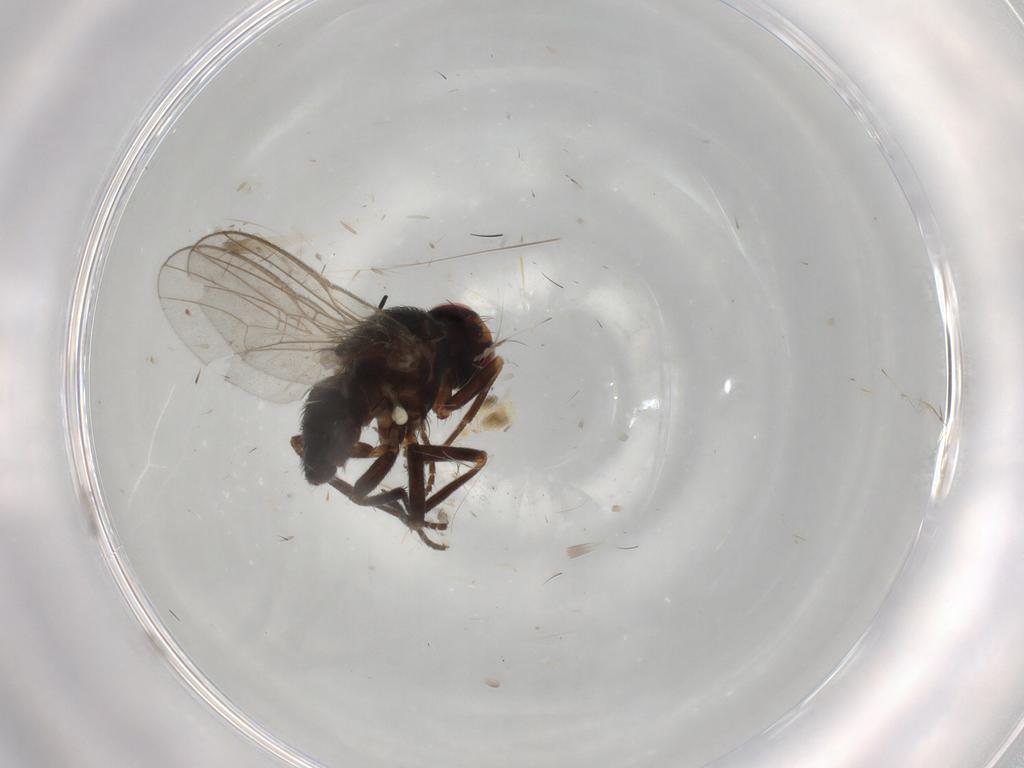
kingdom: Animalia
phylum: Arthropoda
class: Insecta
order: Diptera
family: Cecidomyiidae
